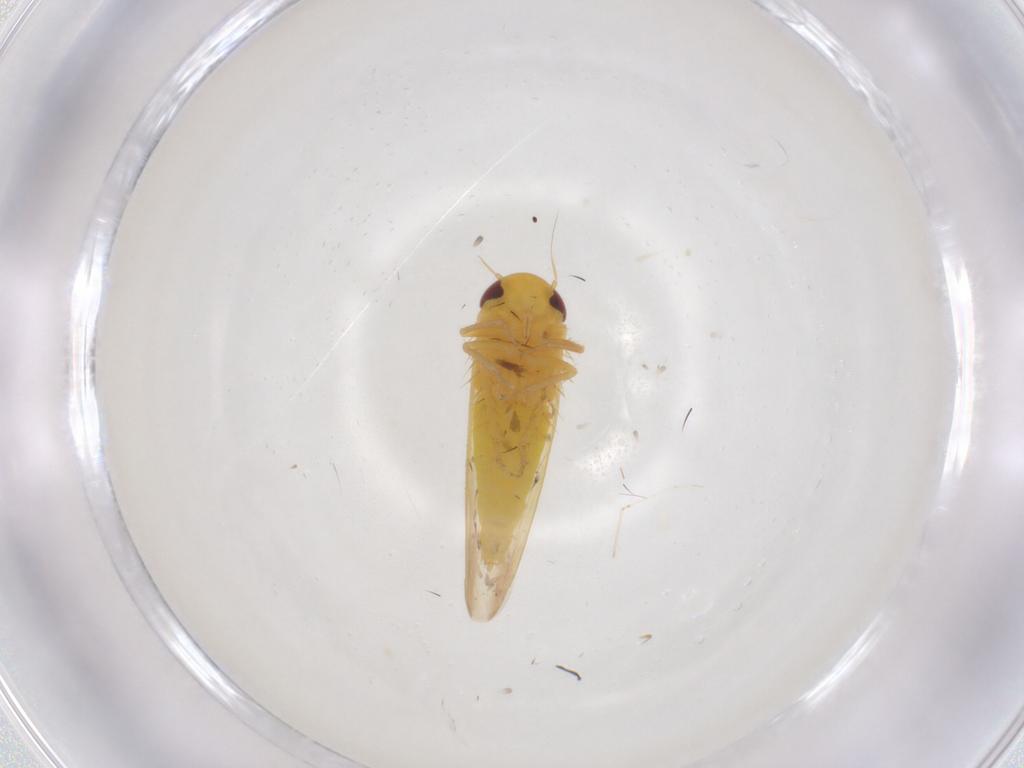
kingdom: Animalia
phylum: Arthropoda
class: Insecta
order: Hemiptera
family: Cicadellidae
